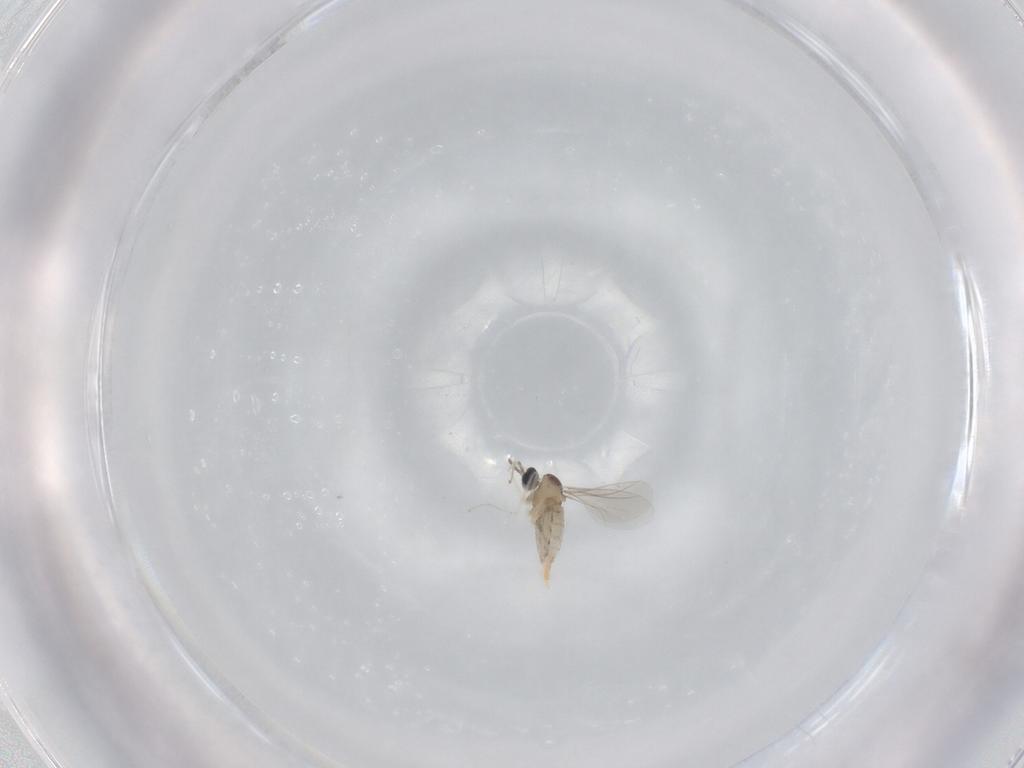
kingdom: Animalia
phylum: Arthropoda
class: Insecta
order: Diptera
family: Cecidomyiidae
